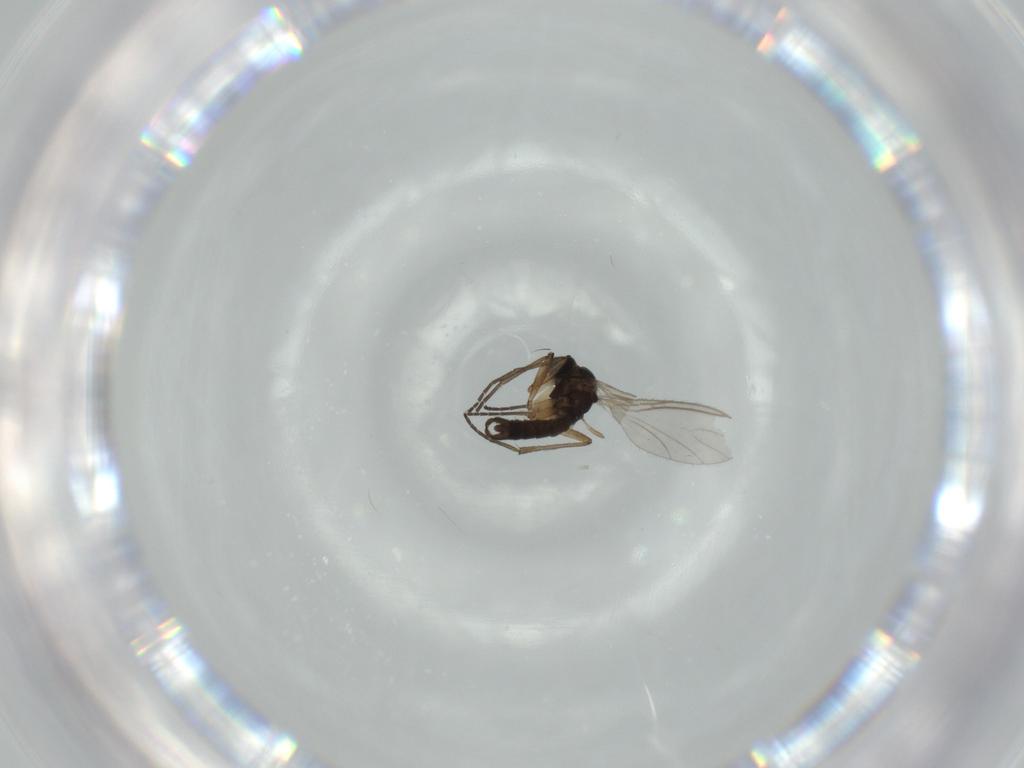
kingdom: Animalia
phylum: Arthropoda
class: Insecta
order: Diptera
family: Sciaridae
